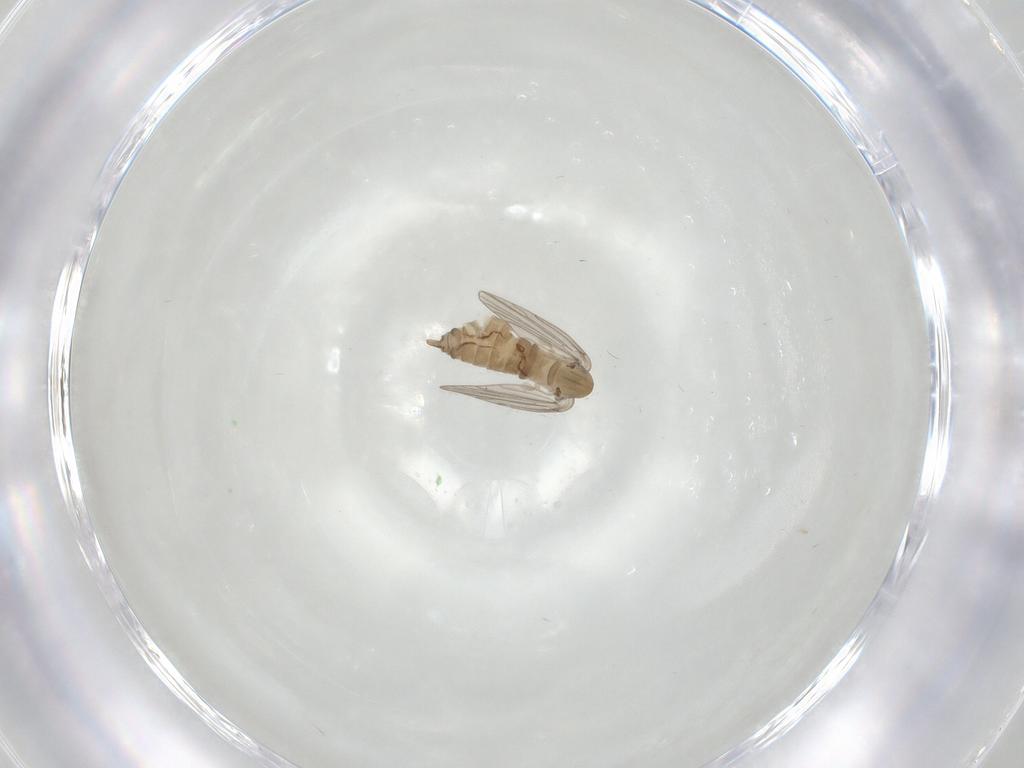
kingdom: Animalia
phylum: Arthropoda
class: Insecta
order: Diptera
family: Psychodidae
